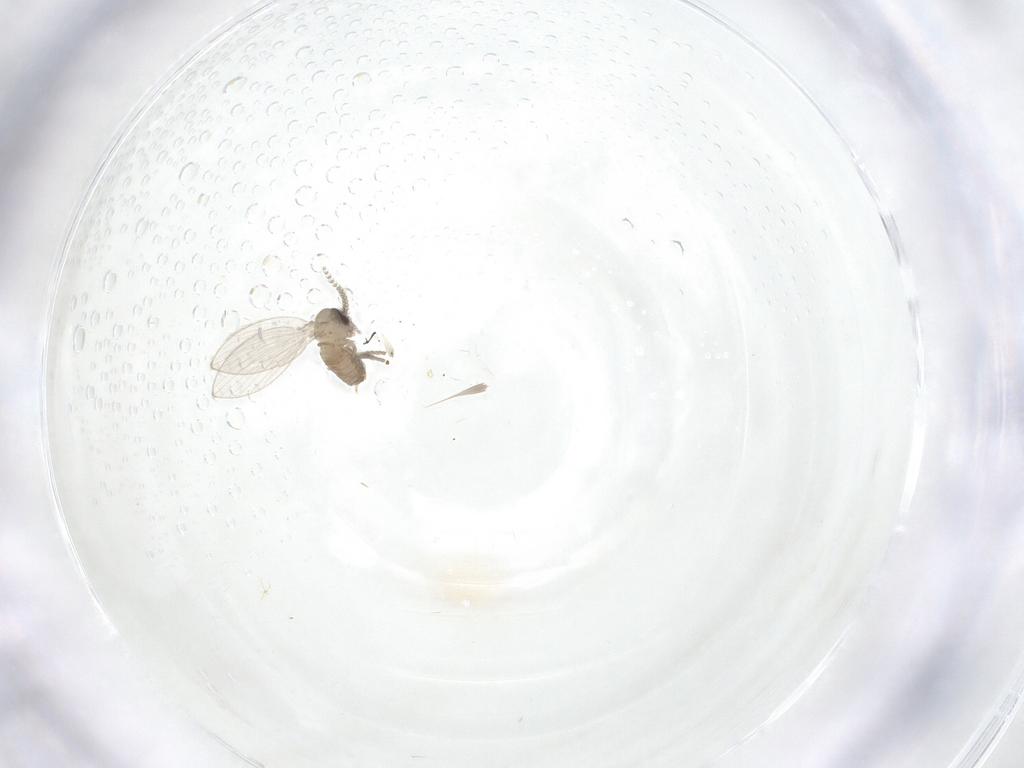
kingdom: Animalia
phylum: Arthropoda
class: Insecta
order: Diptera
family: Psychodidae
